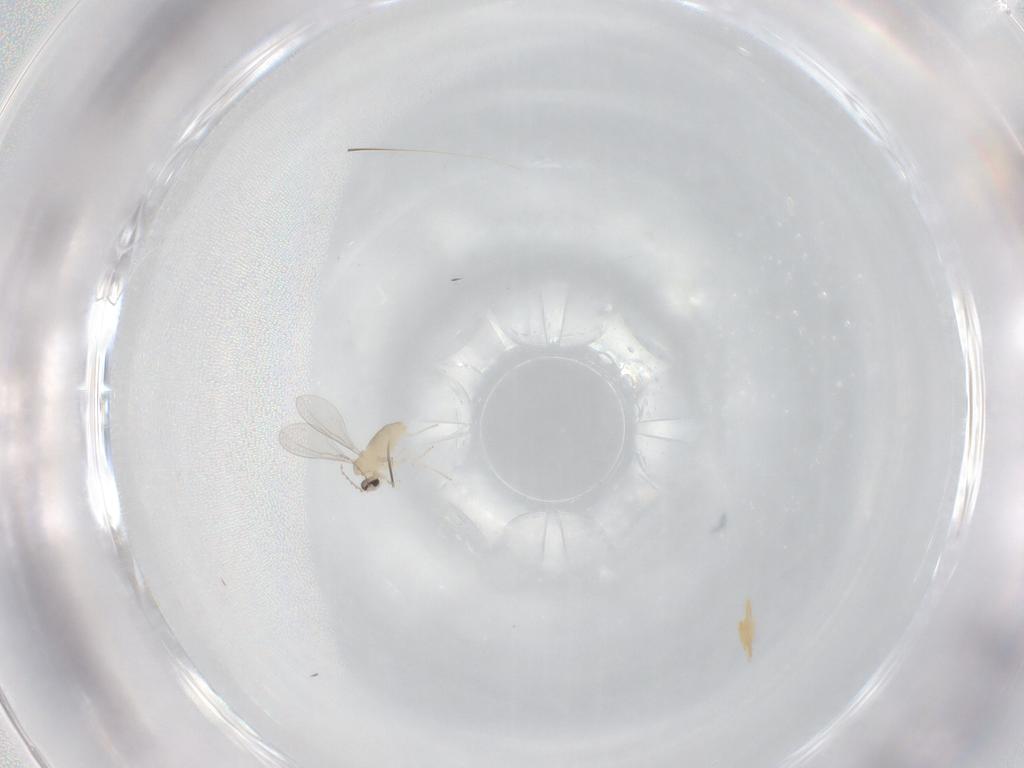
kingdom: Animalia
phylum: Arthropoda
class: Insecta
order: Diptera
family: Cecidomyiidae
